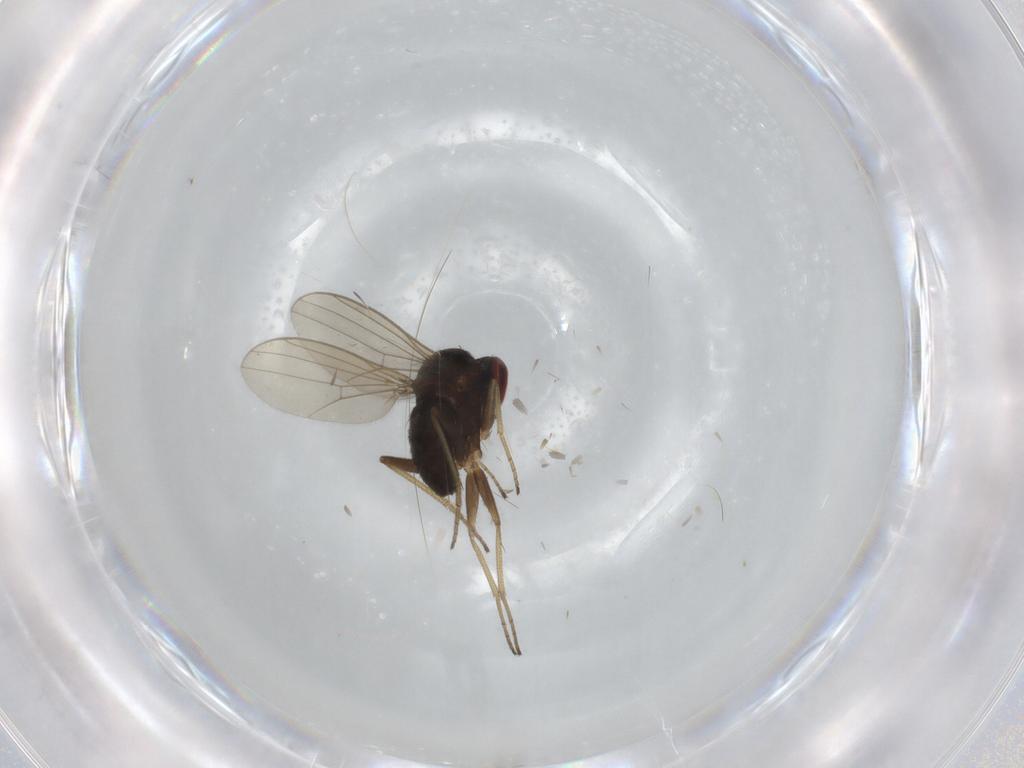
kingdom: Animalia
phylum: Arthropoda
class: Insecta
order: Diptera
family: Dolichopodidae
